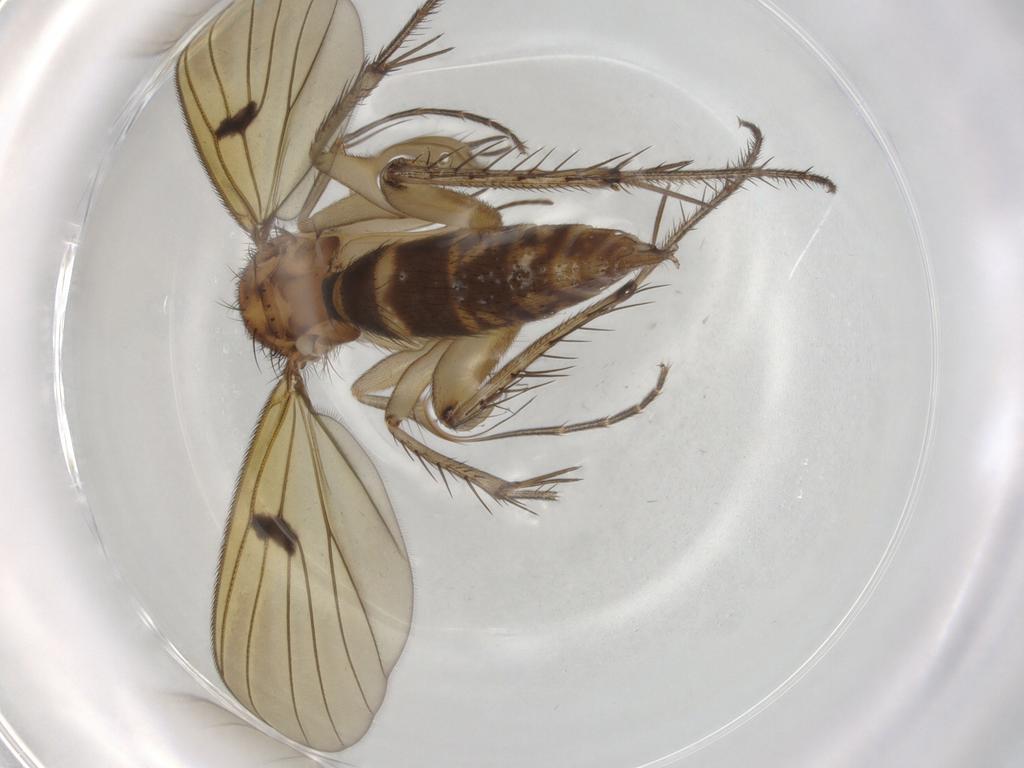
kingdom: Animalia
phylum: Arthropoda
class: Insecta
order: Diptera
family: Mycetophilidae
